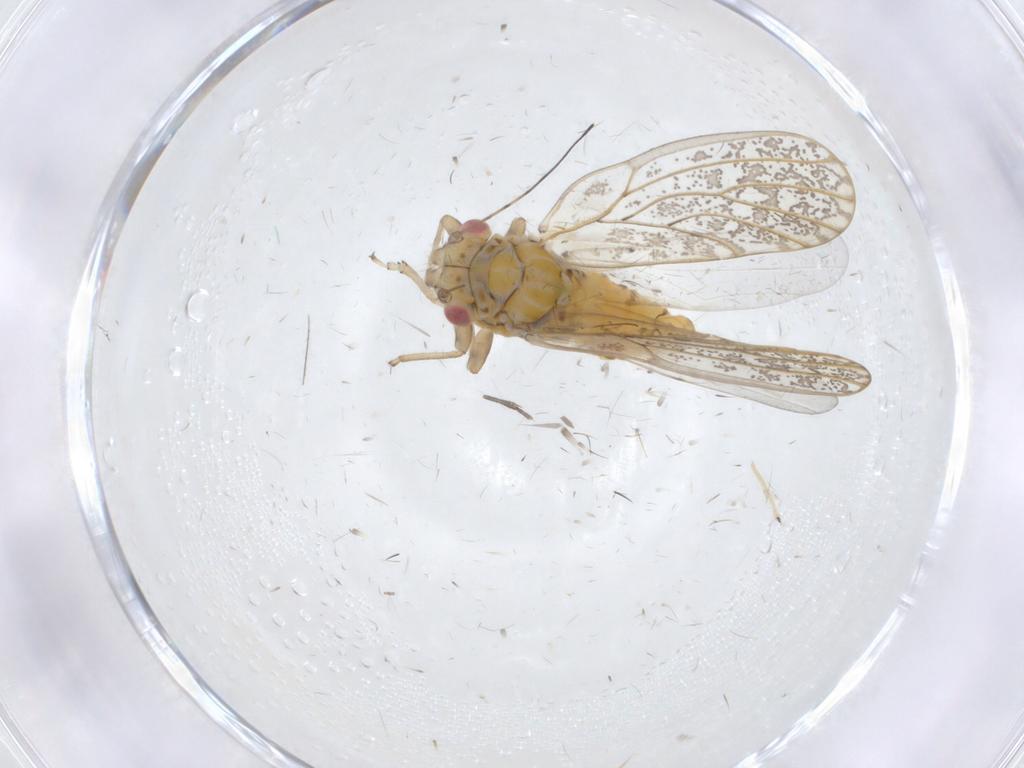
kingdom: Animalia
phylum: Arthropoda
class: Insecta
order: Hemiptera
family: Psyllidae
